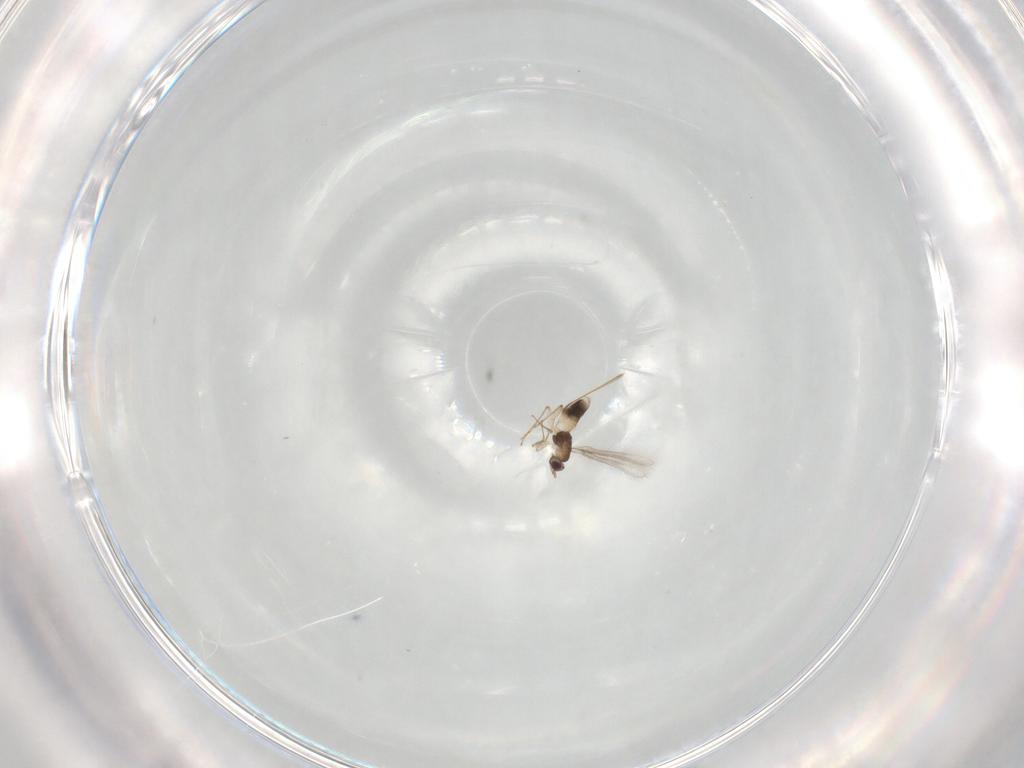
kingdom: Animalia
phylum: Arthropoda
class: Insecta
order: Hymenoptera
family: Mymaridae
